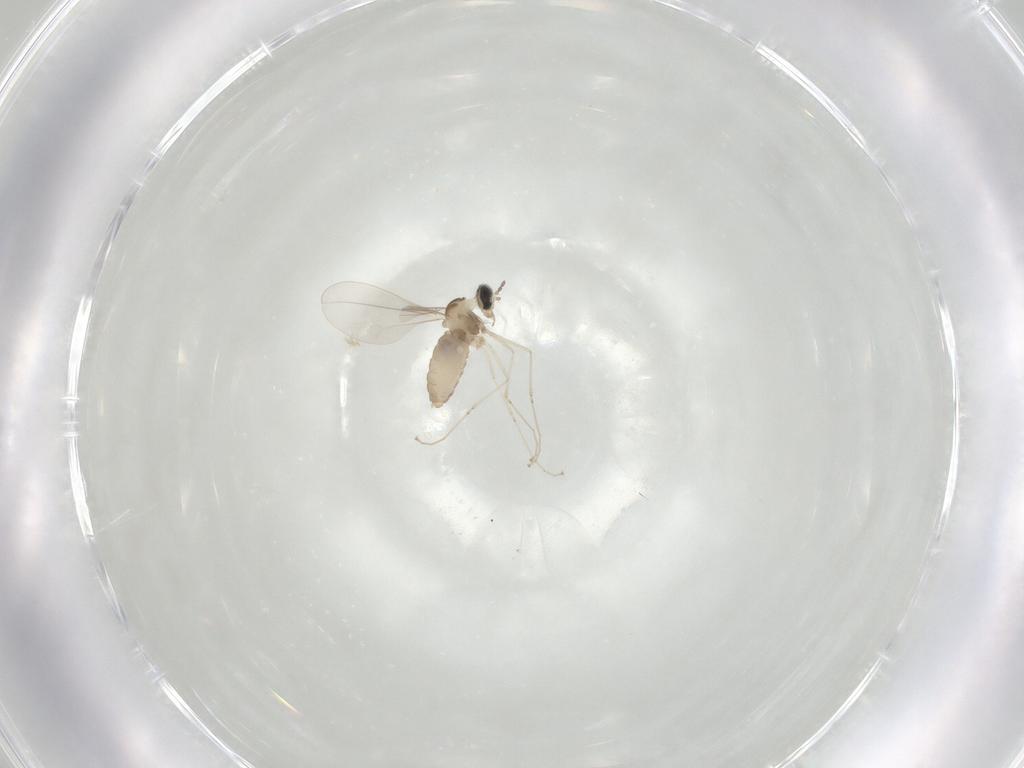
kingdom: Animalia
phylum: Arthropoda
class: Insecta
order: Diptera
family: Cecidomyiidae
